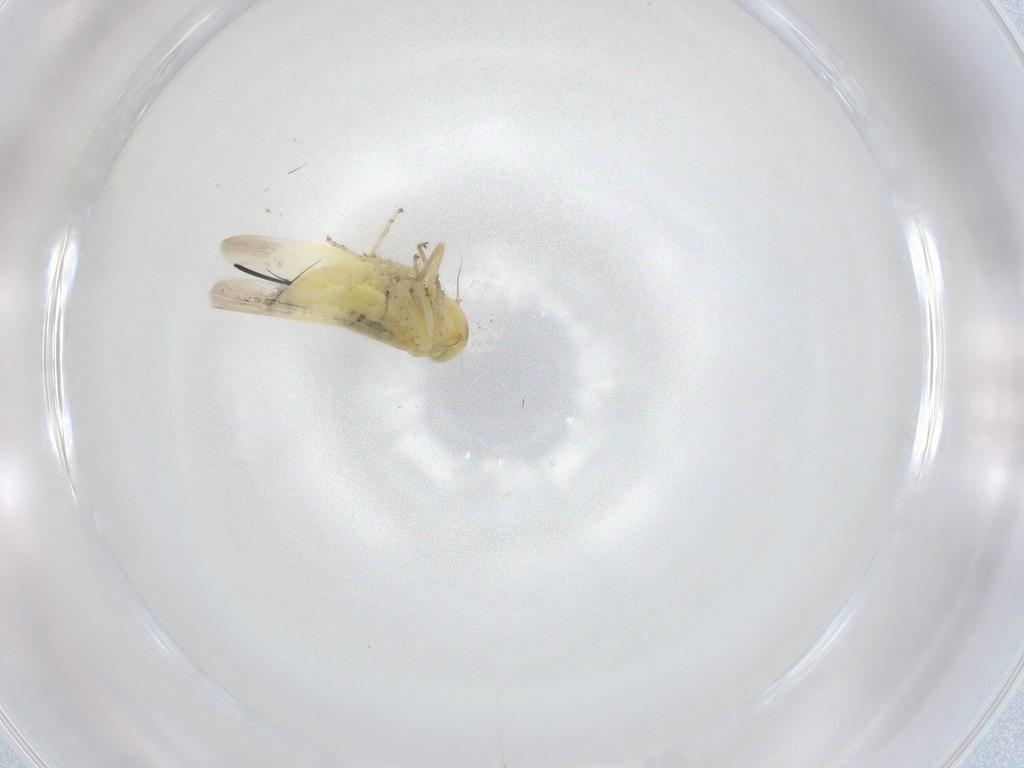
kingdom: Animalia
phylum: Arthropoda
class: Insecta
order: Hemiptera
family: Cicadellidae
